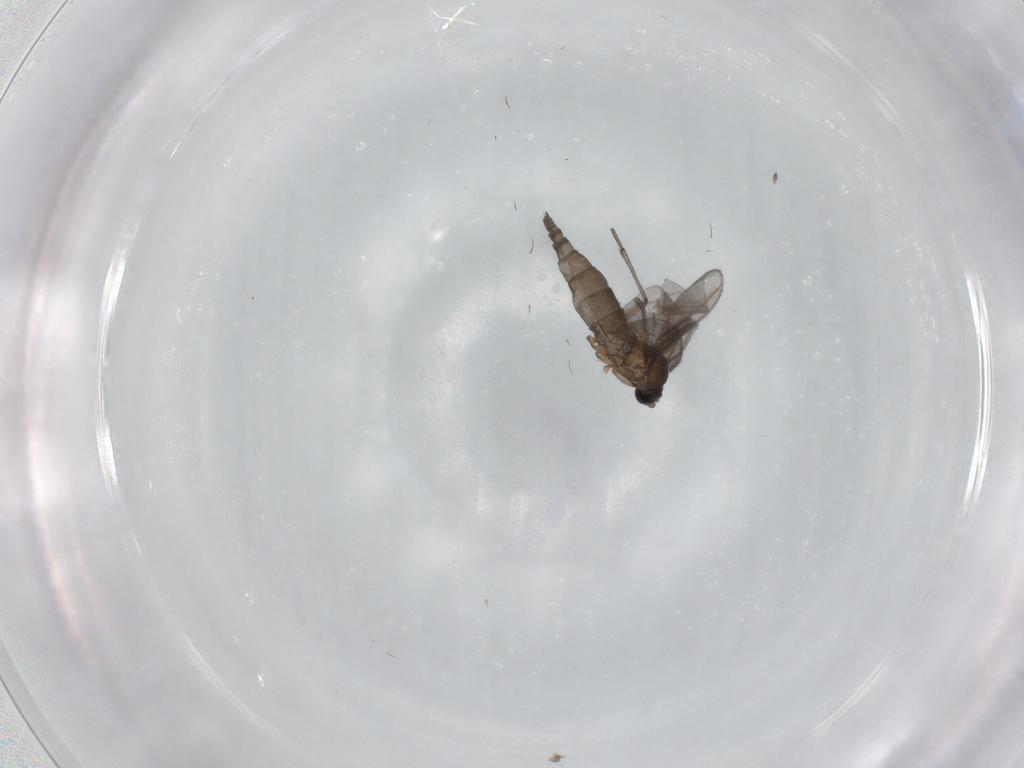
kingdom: Animalia
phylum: Arthropoda
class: Insecta
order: Diptera
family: Sciaridae
